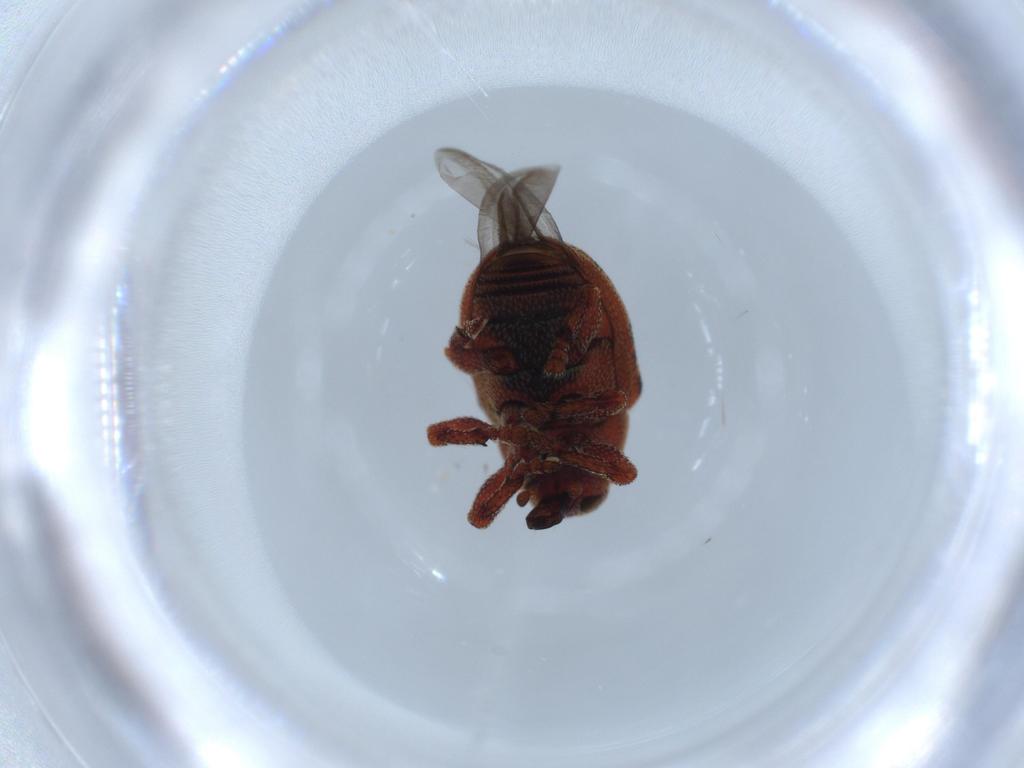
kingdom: Animalia
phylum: Arthropoda
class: Insecta
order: Coleoptera
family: Curculionidae
